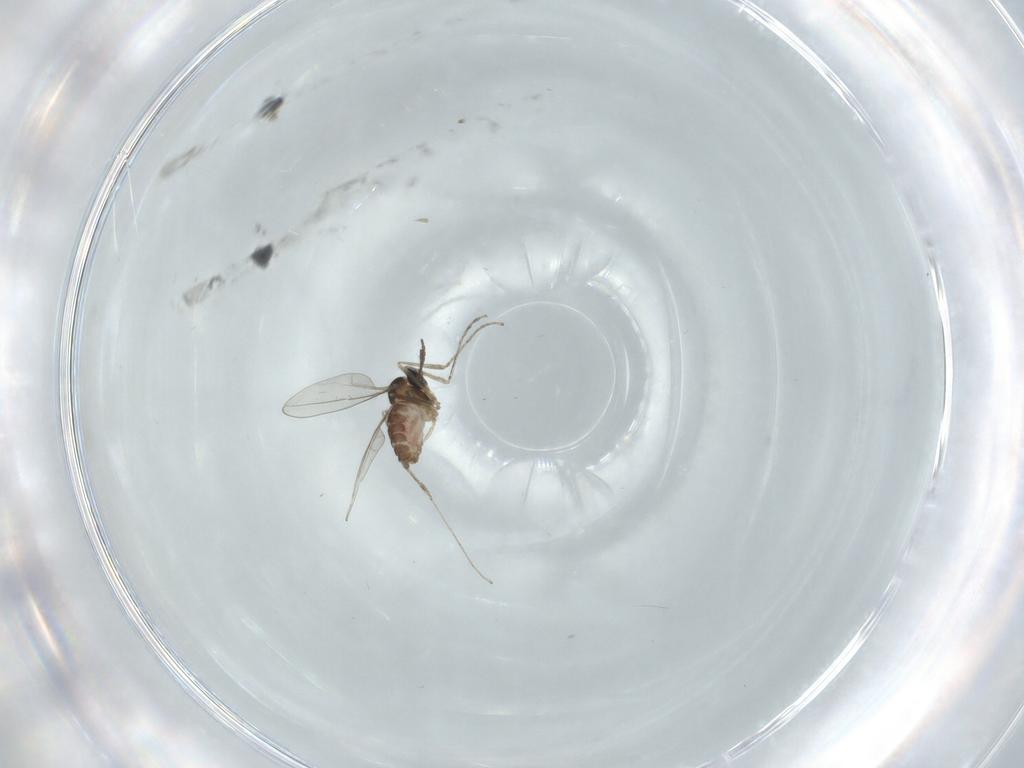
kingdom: Animalia
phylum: Arthropoda
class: Insecta
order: Diptera
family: Cecidomyiidae
